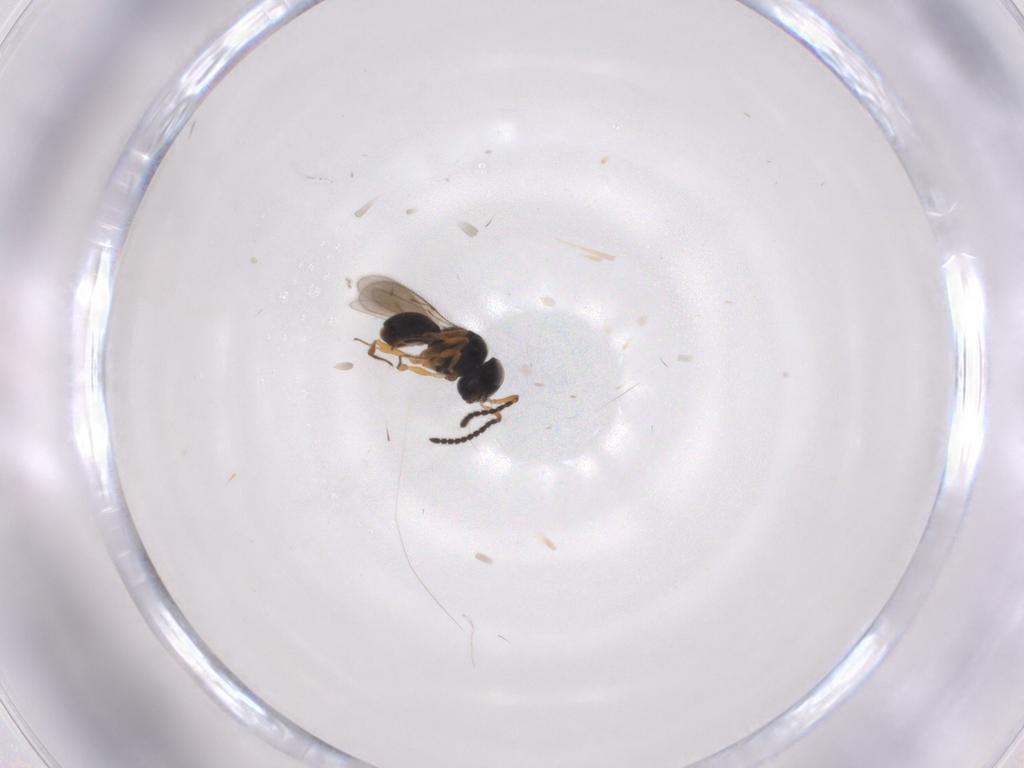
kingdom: Animalia
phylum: Arthropoda
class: Insecta
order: Hymenoptera
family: Scelionidae
